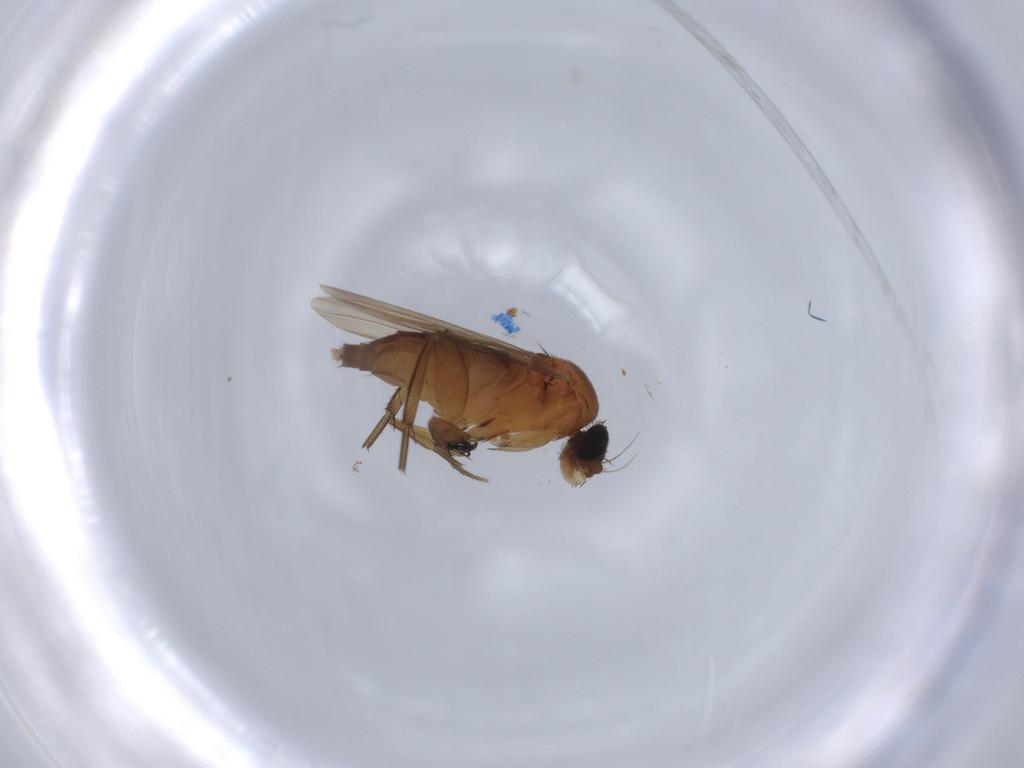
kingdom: Animalia
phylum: Arthropoda
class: Insecta
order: Diptera
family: Phoridae
